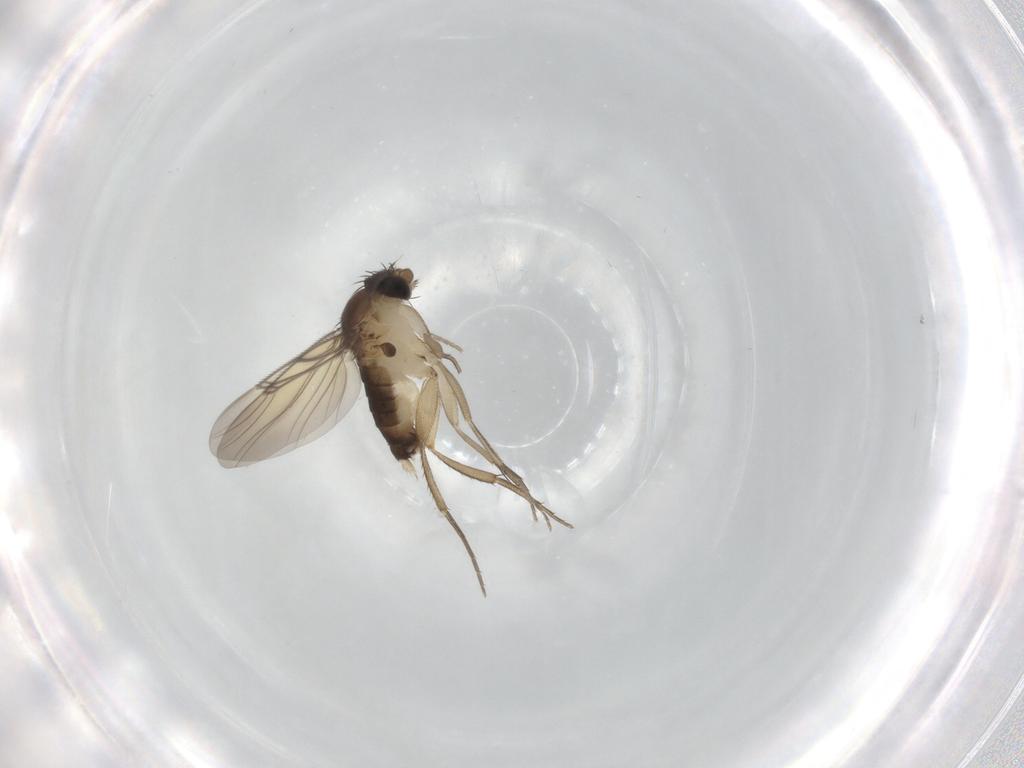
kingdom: Animalia
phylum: Arthropoda
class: Insecta
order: Diptera
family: Phoridae
